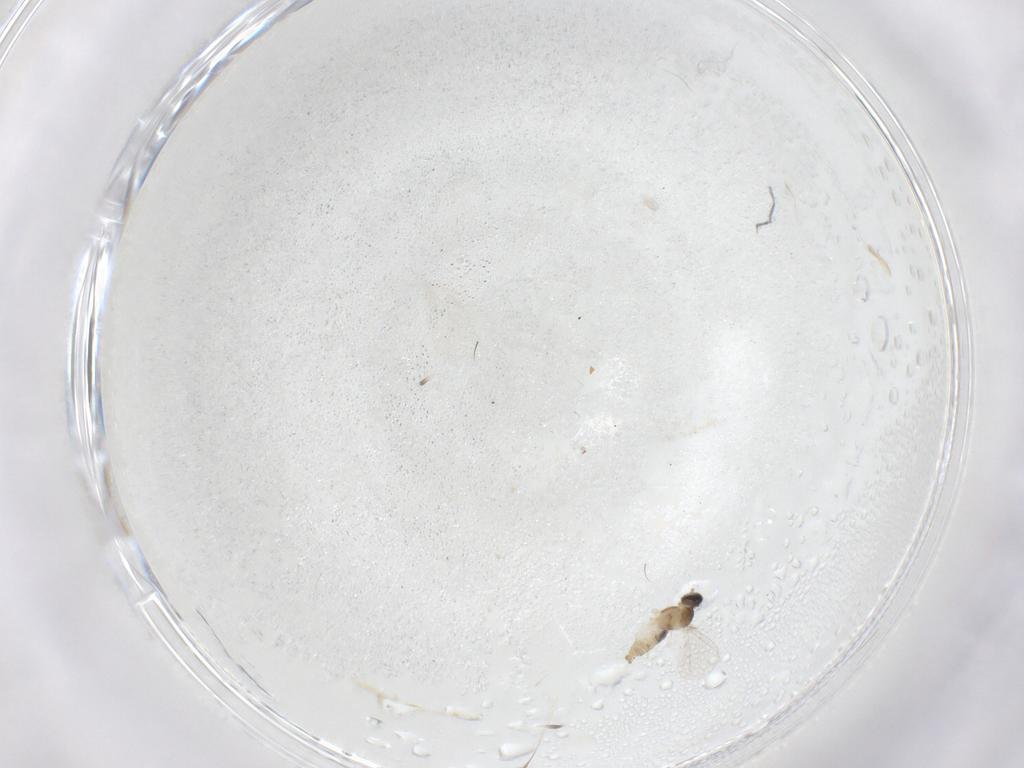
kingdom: Animalia
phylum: Arthropoda
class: Insecta
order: Diptera
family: Cecidomyiidae
